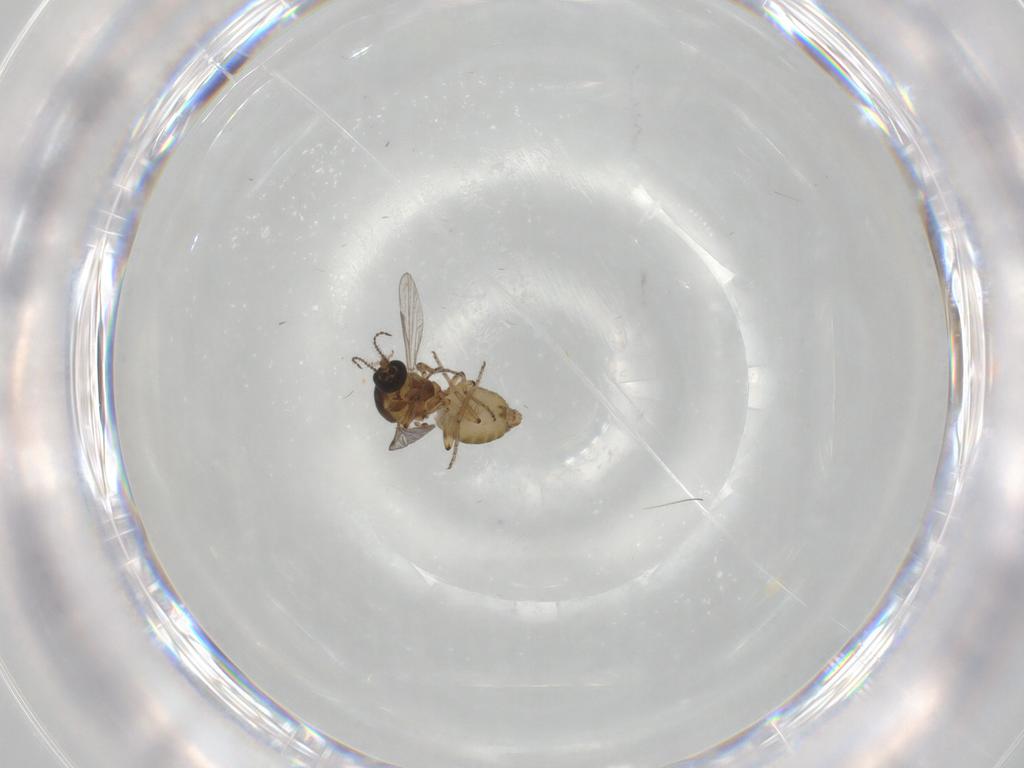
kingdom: Animalia
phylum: Arthropoda
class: Insecta
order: Diptera
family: Ceratopogonidae
